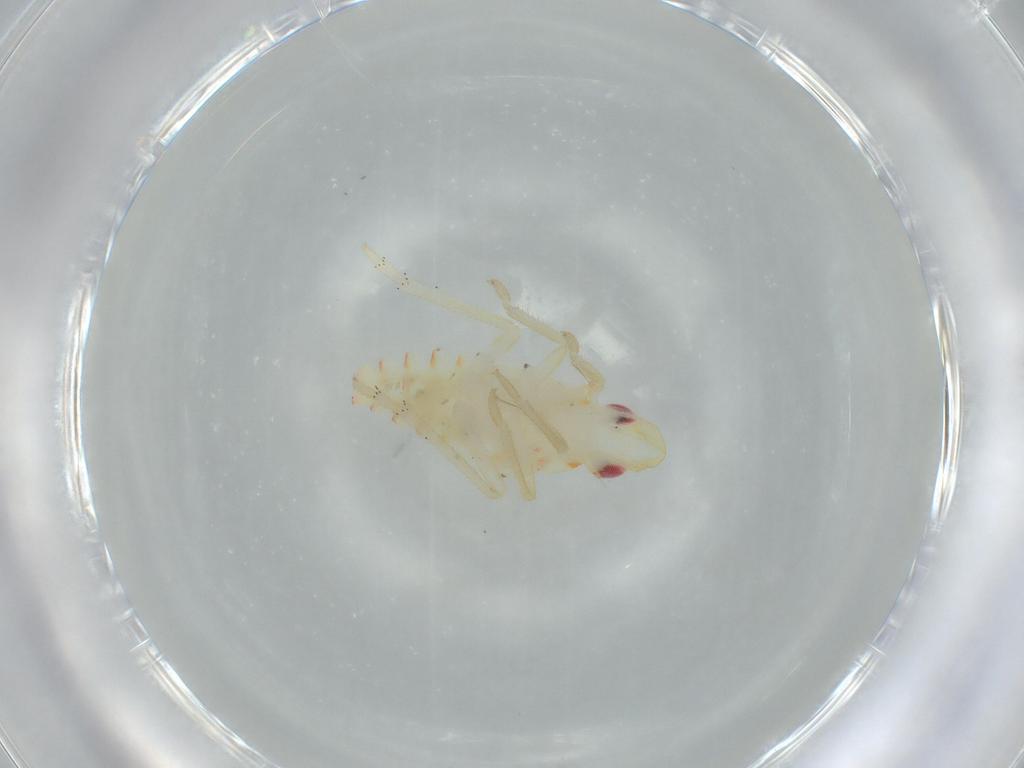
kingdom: Animalia
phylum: Arthropoda
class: Insecta
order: Hemiptera
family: Tropiduchidae
